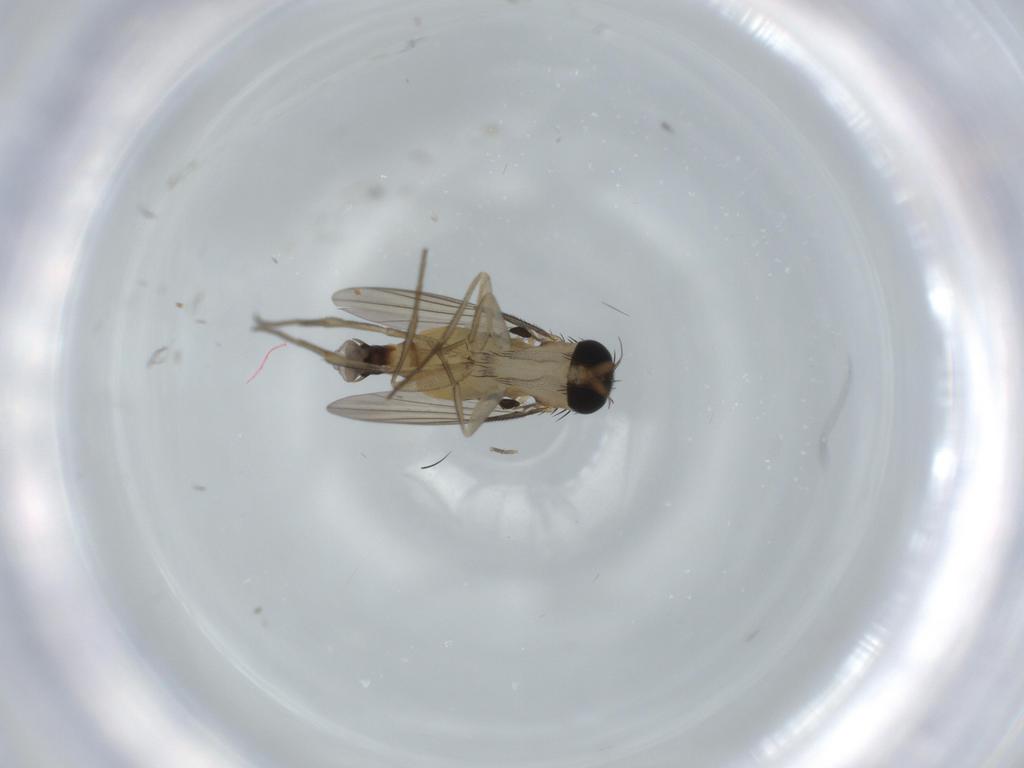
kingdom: Animalia
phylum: Arthropoda
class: Insecta
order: Diptera
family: Phoridae
